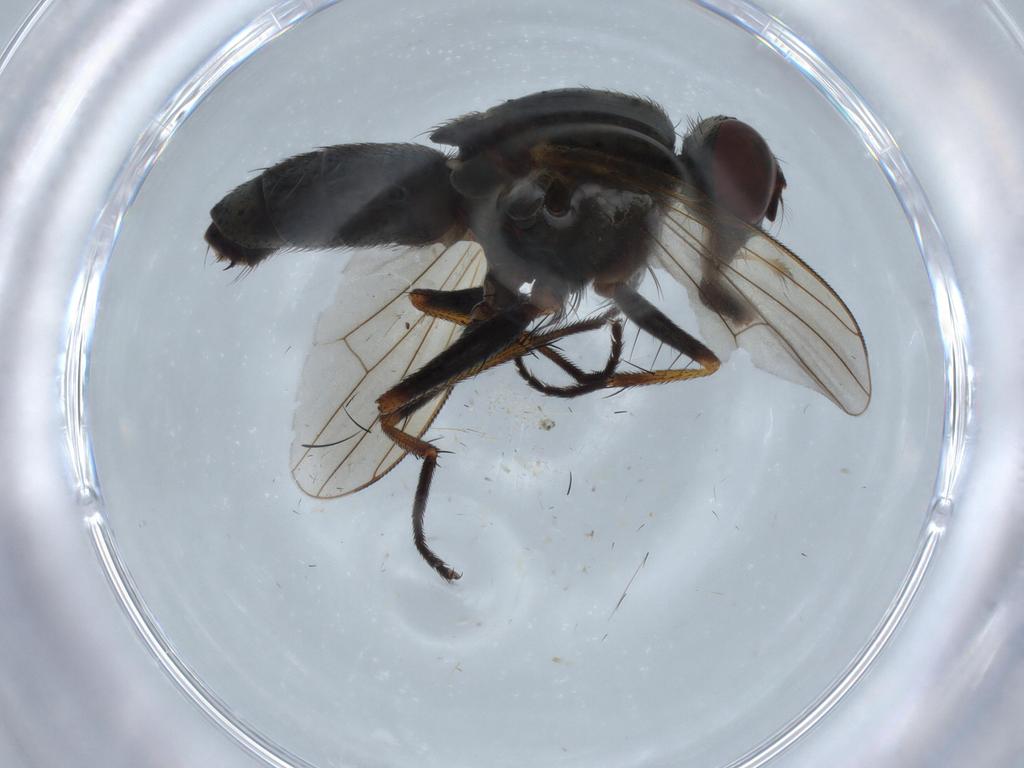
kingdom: Animalia
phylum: Arthropoda
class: Insecta
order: Diptera
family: Muscidae
